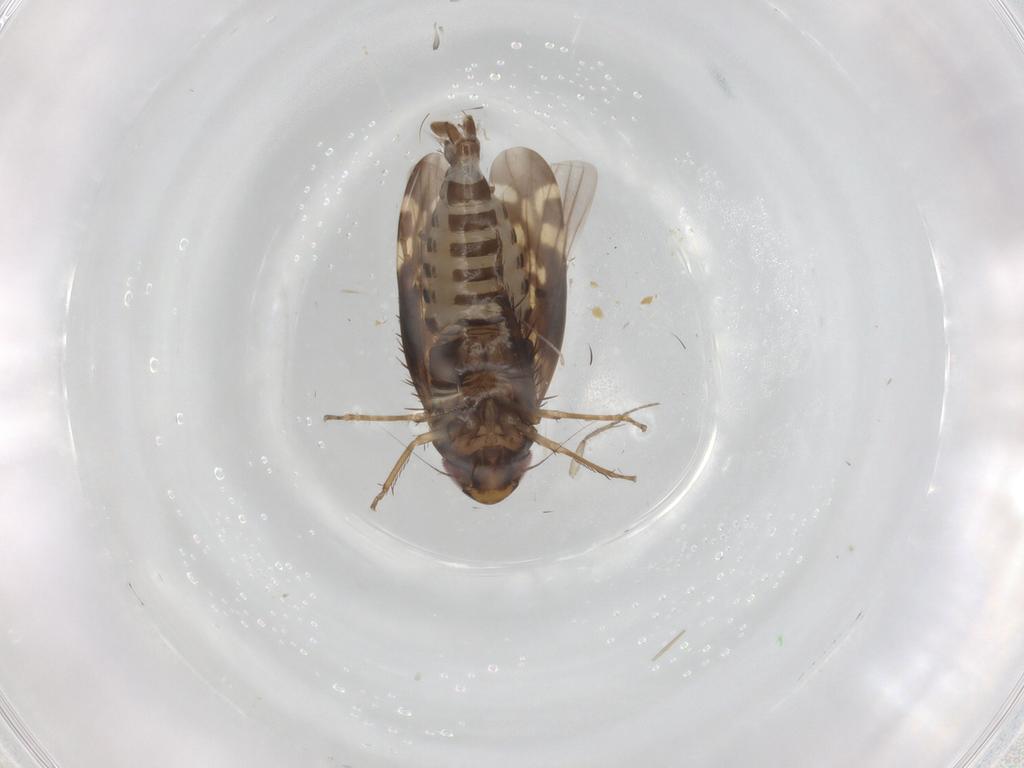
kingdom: Animalia
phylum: Arthropoda
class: Insecta
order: Hemiptera
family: Cicadellidae
